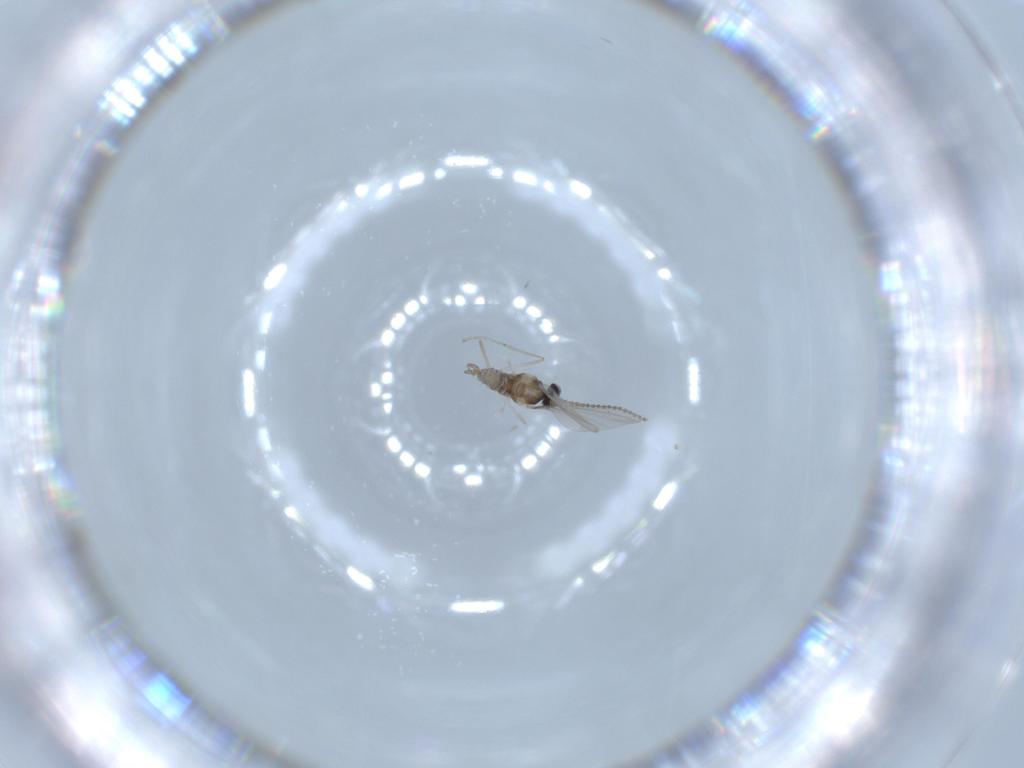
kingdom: Animalia
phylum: Arthropoda
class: Insecta
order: Diptera
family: Cecidomyiidae
